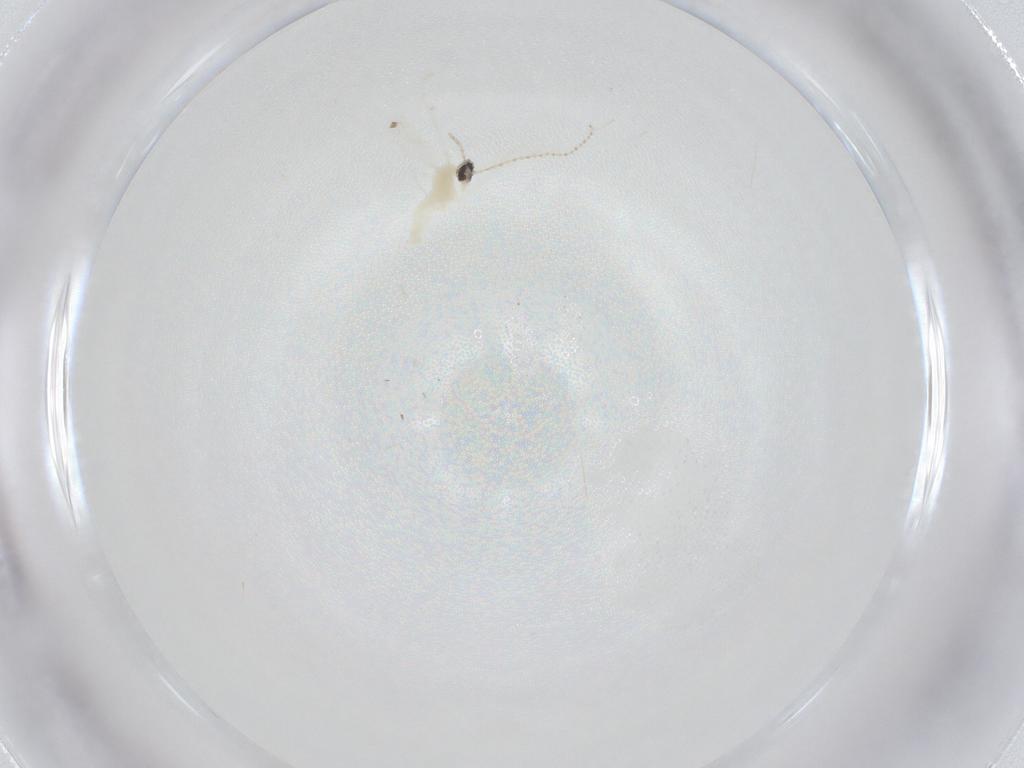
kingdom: Animalia
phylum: Arthropoda
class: Insecta
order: Diptera
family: Cecidomyiidae
